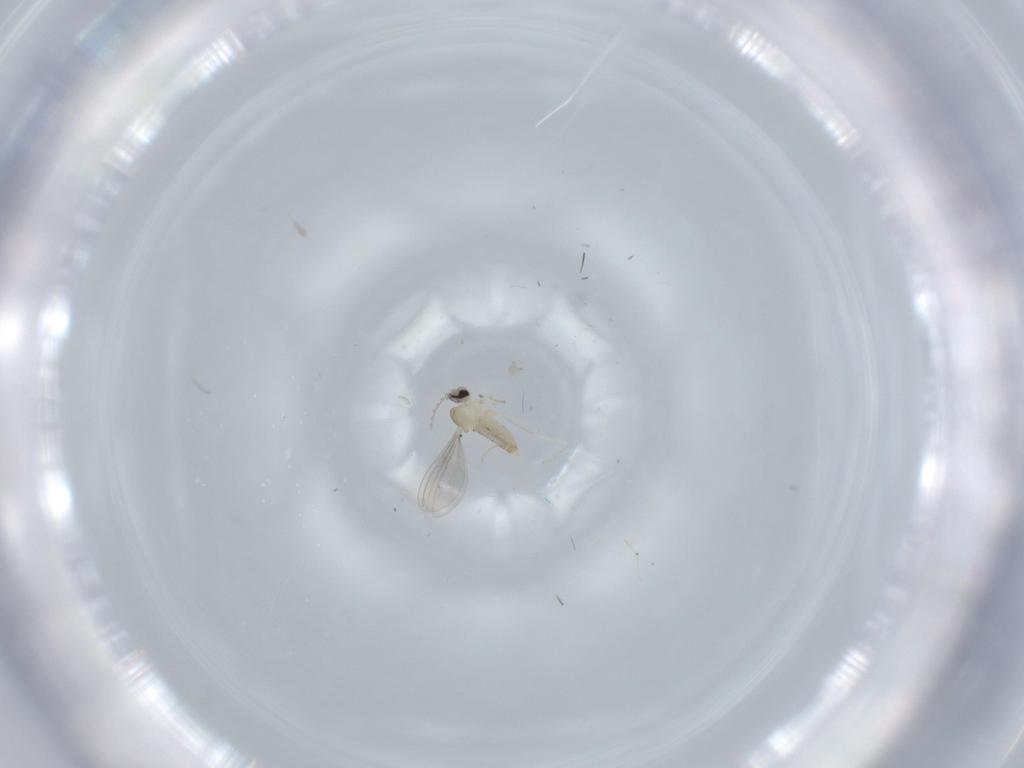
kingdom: Animalia
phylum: Arthropoda
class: Insecta
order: Diptera
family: Cecidomyiidae
